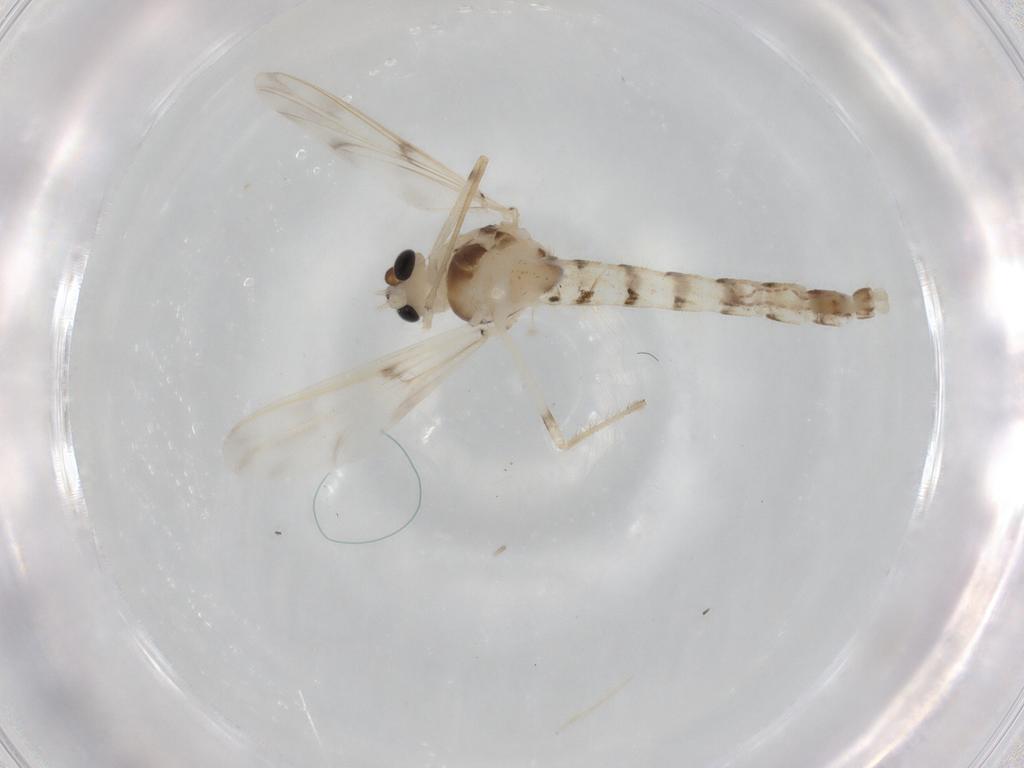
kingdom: Animalia
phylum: Arthropoda
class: Insecta
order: Diptera
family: Chironomidae
